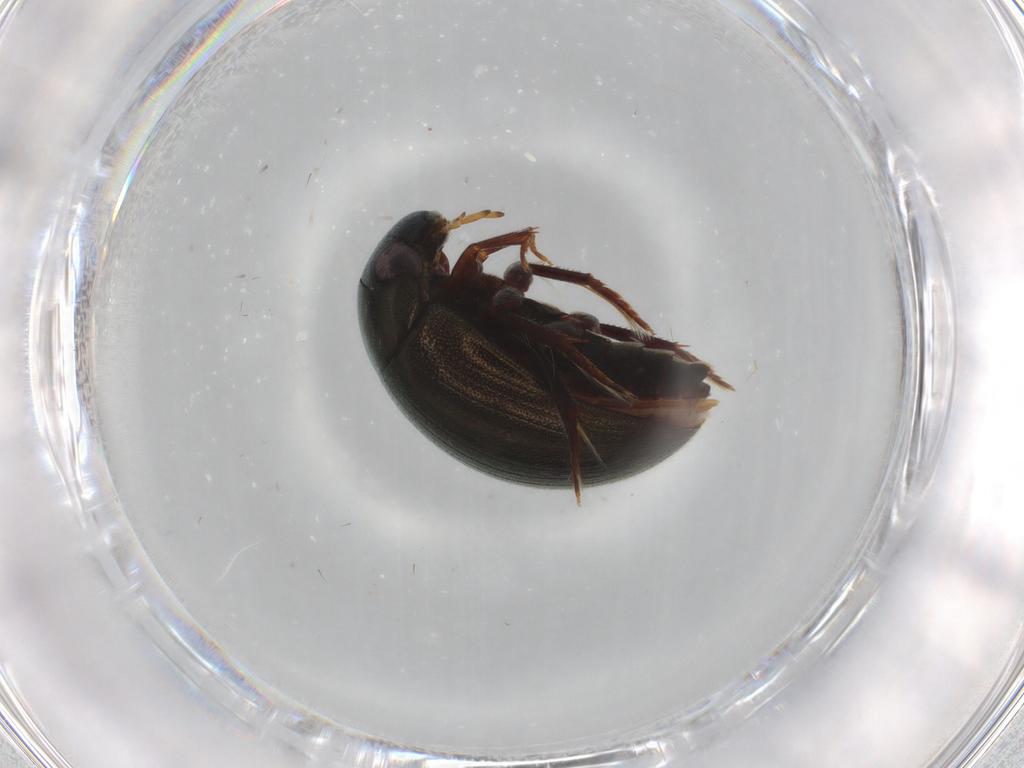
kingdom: Animalia
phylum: Arthropoda
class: Insecta
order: Coleoptera
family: Hydrophilidae
